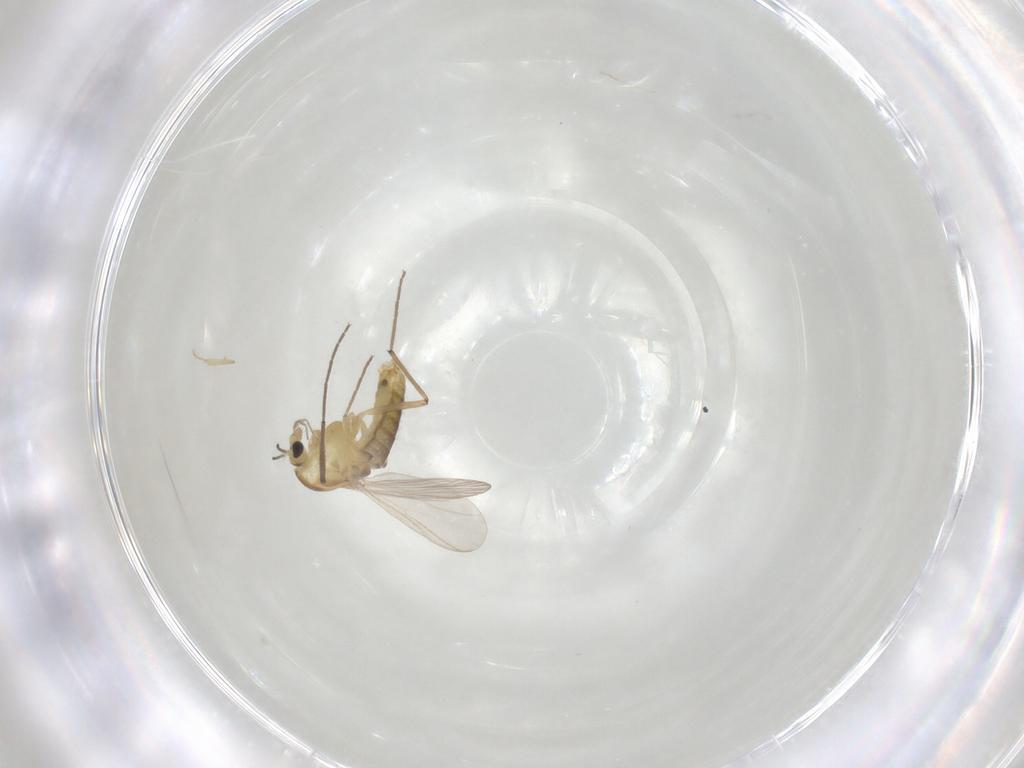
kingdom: Animalia
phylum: Arthropoda
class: Insecta
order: Diptera
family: Chironomidae
